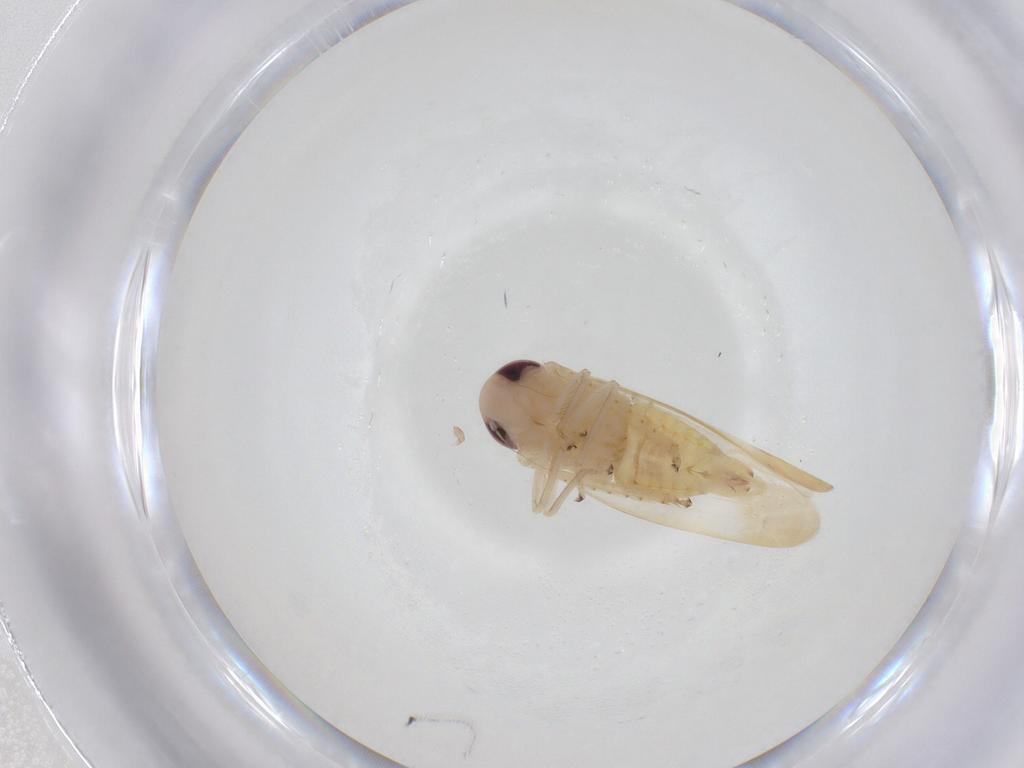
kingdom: Animalia
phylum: Arthropoda
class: Insecta
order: Hemiptera
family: Cicadellidae
